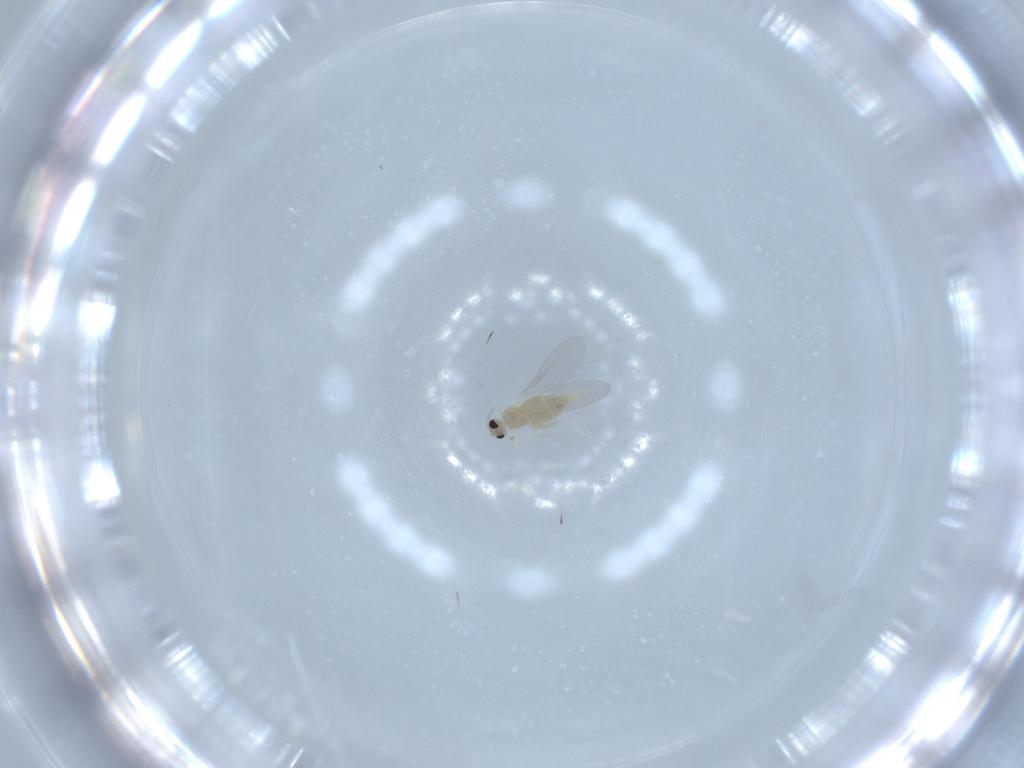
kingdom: Animalia
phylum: Arthropoda
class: Insecta
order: Diptera
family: Cecidomyiidae
